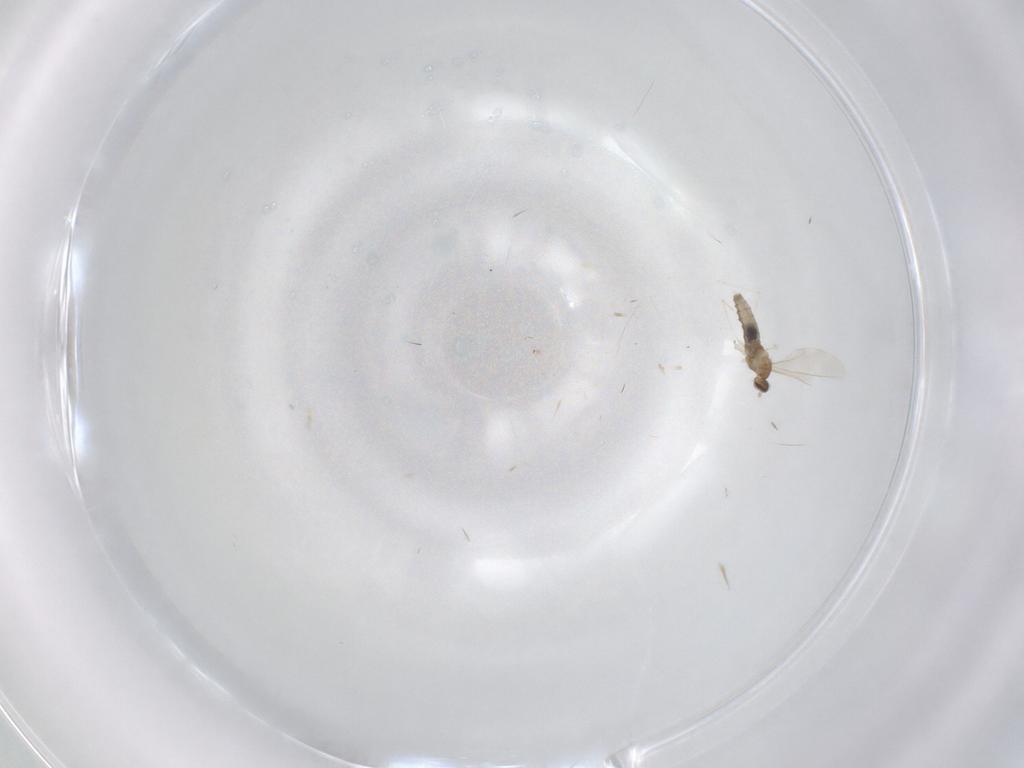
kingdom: Animalia
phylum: Arthropoda
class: Insecta
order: Diptera
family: Cecidomyiidae
